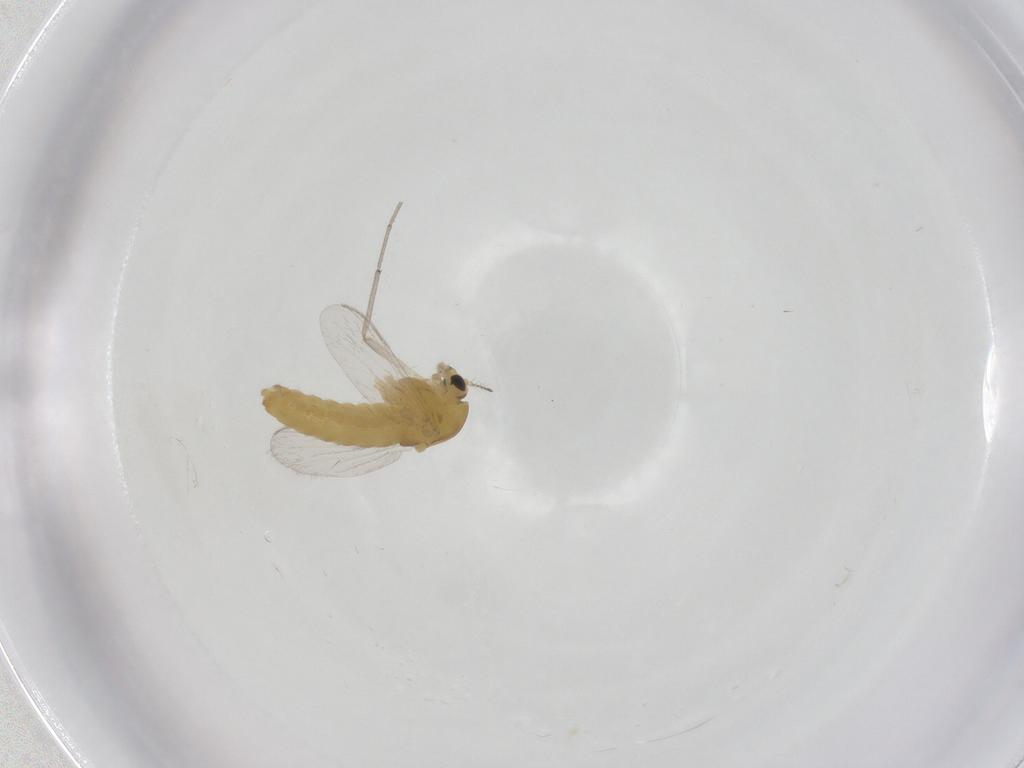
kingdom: Animalia
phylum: Arthropoda
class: Insecta
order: Diptera
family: Chironomidae
